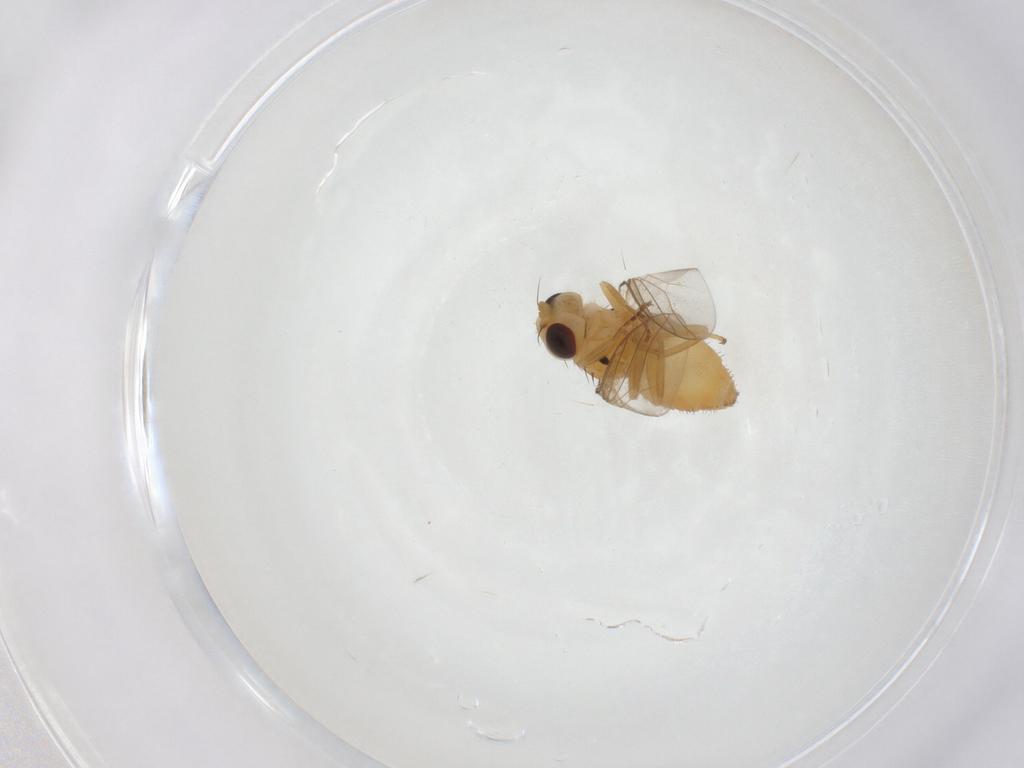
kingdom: Animalia
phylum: Arthropoda
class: Insecta
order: Diptera
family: Chloropidae
